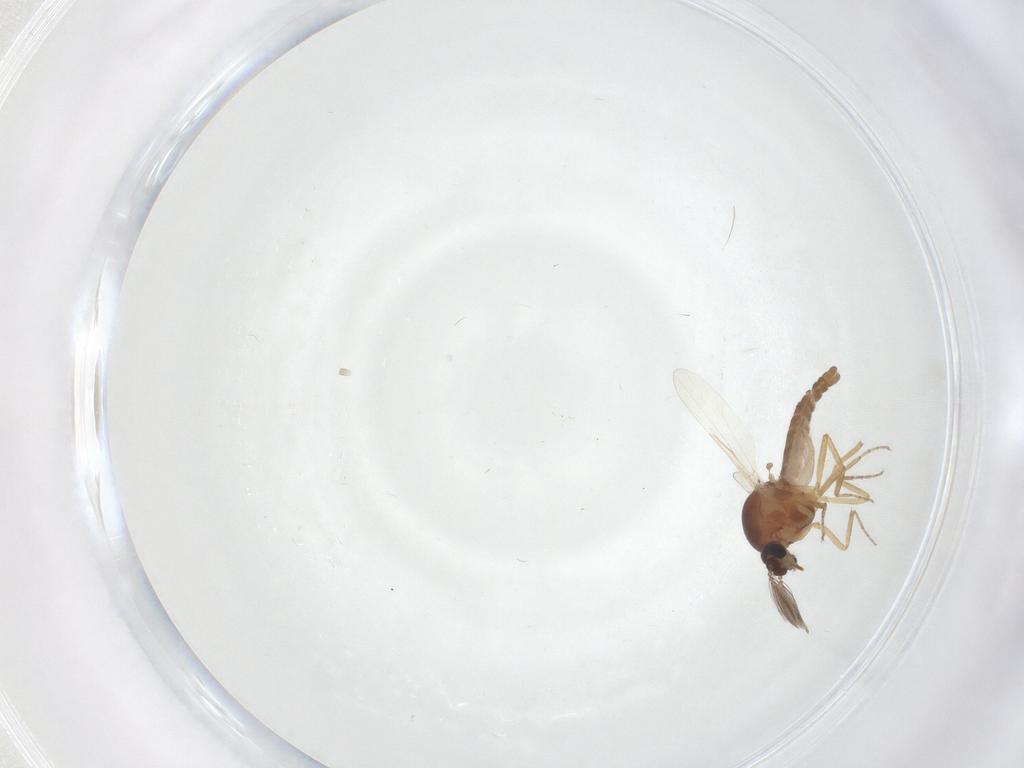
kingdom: Animalia
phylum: Arthropoda
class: Insecta
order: Diptera
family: Ceratopogonidae
